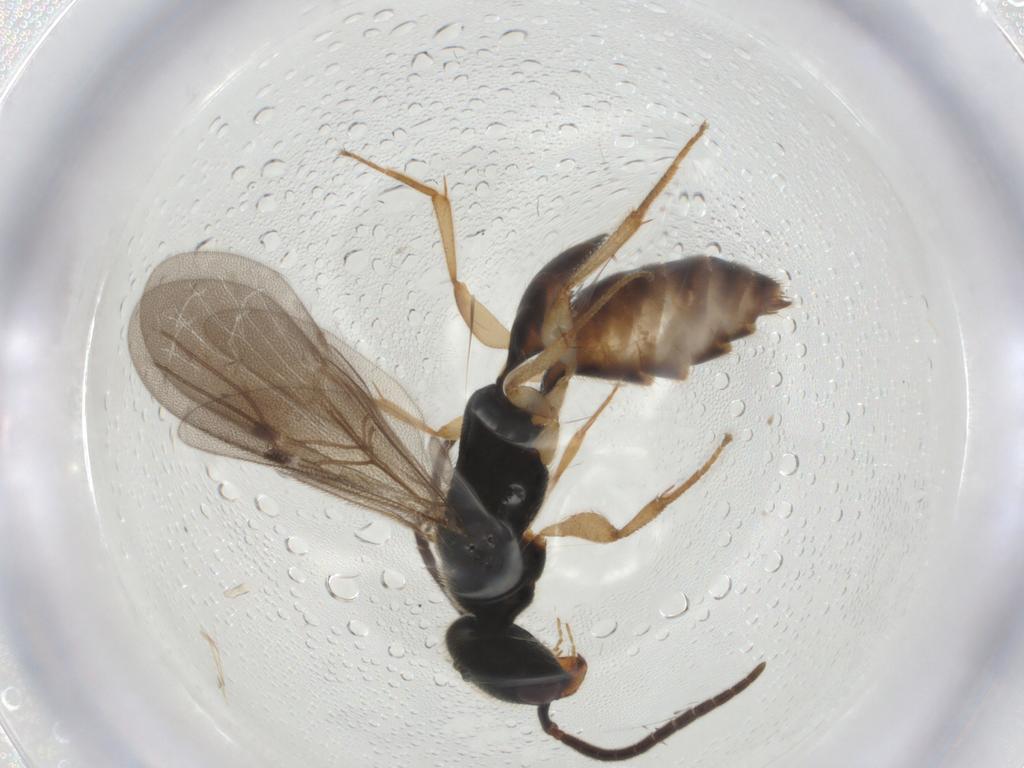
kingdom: Animalia
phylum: Arthropoda
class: Insecta
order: Hymenoptera
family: Bethylidae
